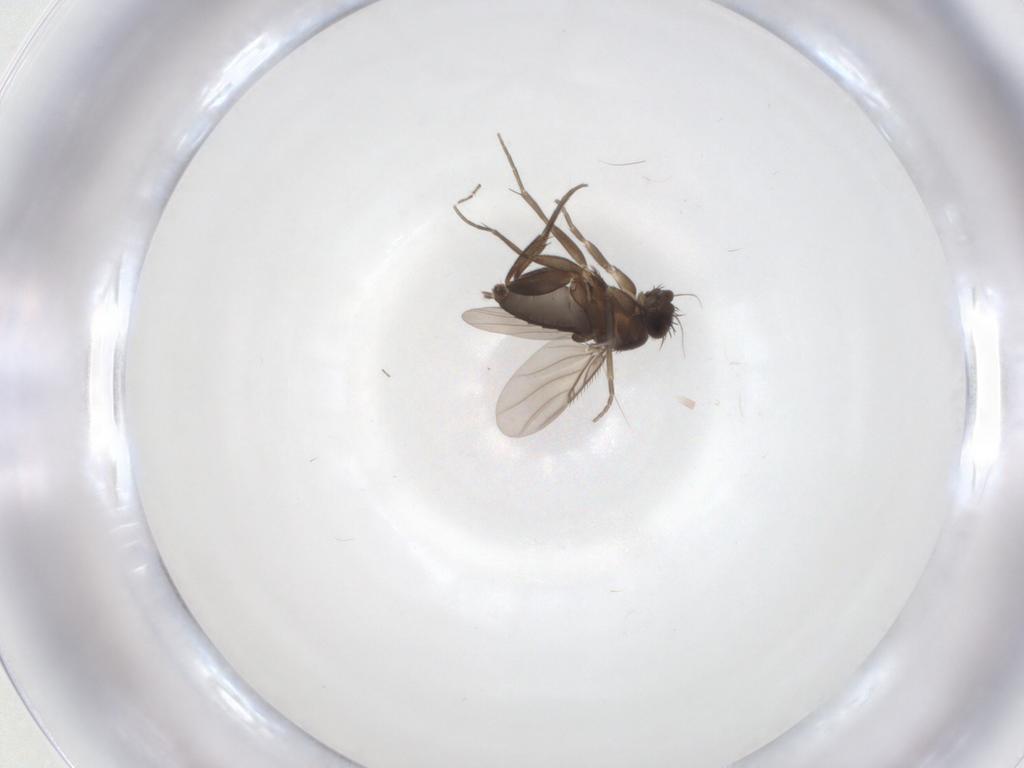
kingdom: Animalia
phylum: Arthropoda
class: Insecta
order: Diptera
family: Phoridae
